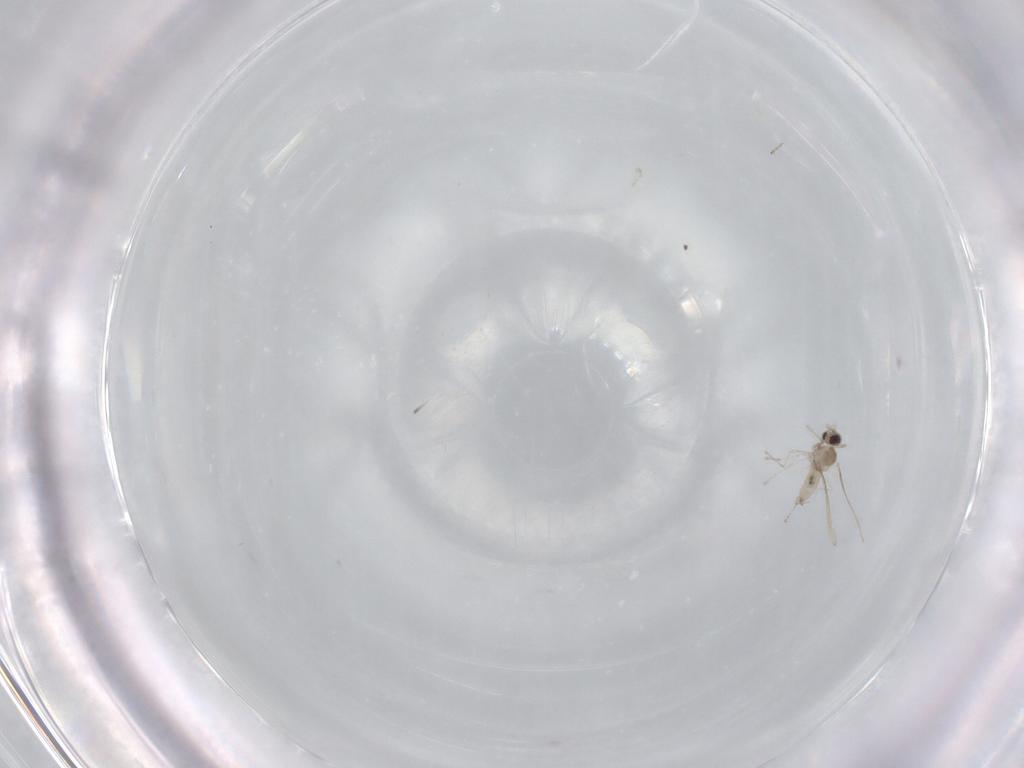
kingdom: Animalia
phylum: Arthropoda
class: Insecta
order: Diptera
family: Cecidomyiidae
